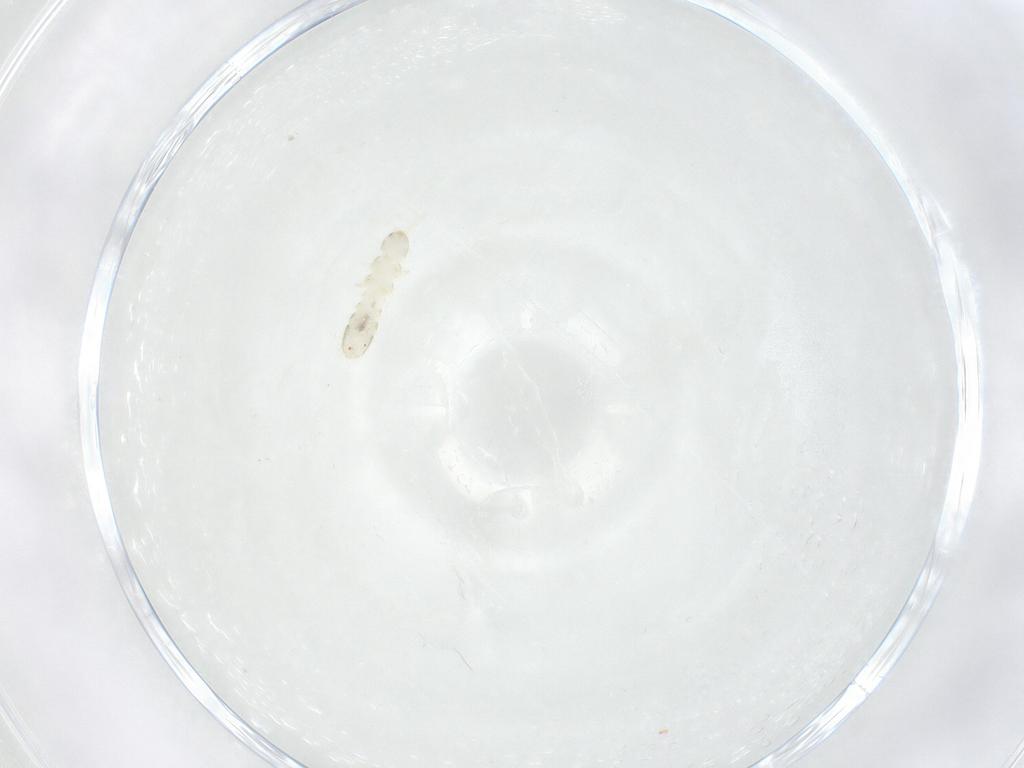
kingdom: Animalia
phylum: Arthropoda
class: Collembola
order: Entomobryomorpha
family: Isotomidae
